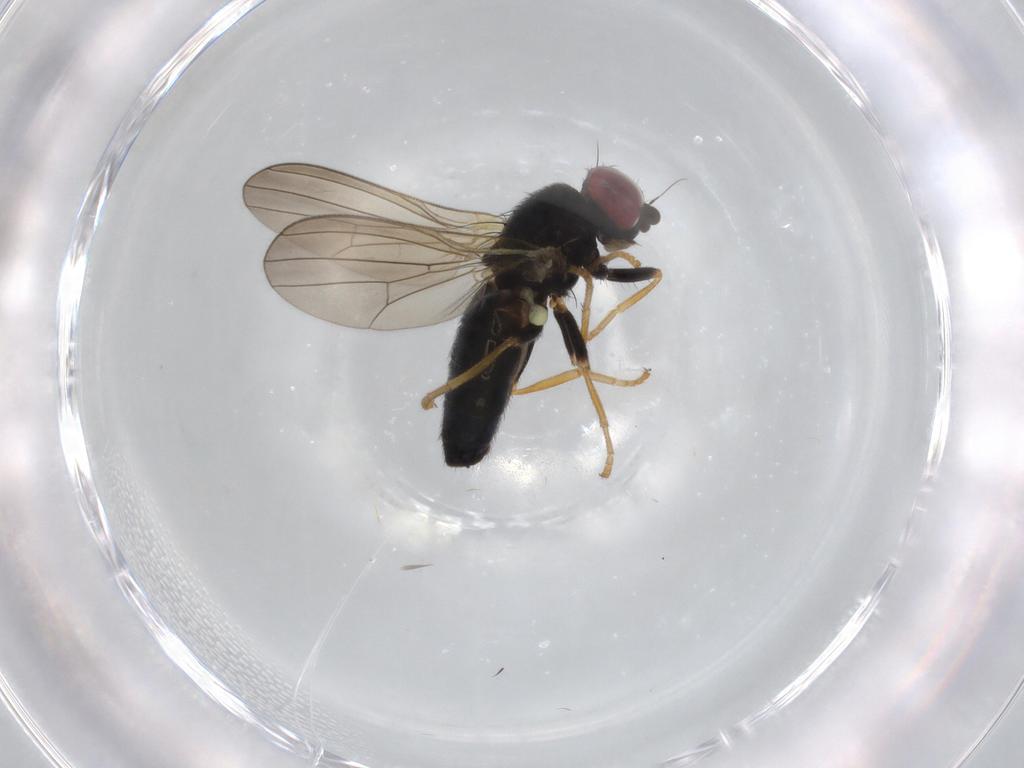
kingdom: Animalia
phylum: Arthropoda
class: Insecta
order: Diptera
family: Chamaemyiidae
